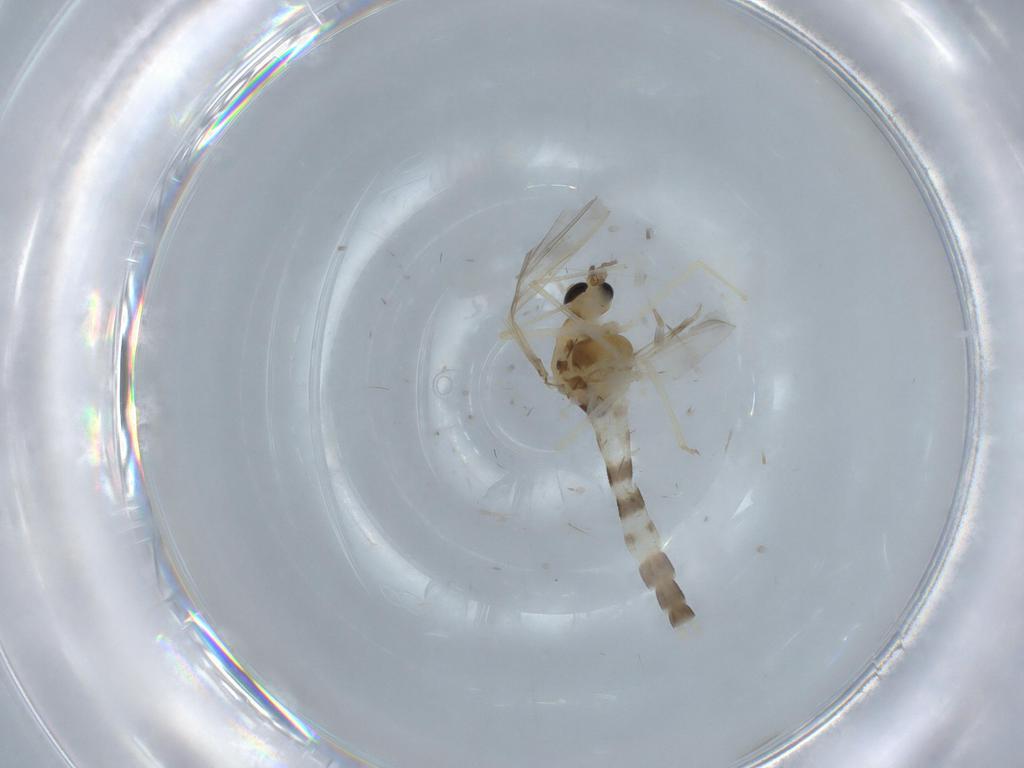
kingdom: Animalia
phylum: Arthropoda
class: Insecta
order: Diptera
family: Chironomidae
